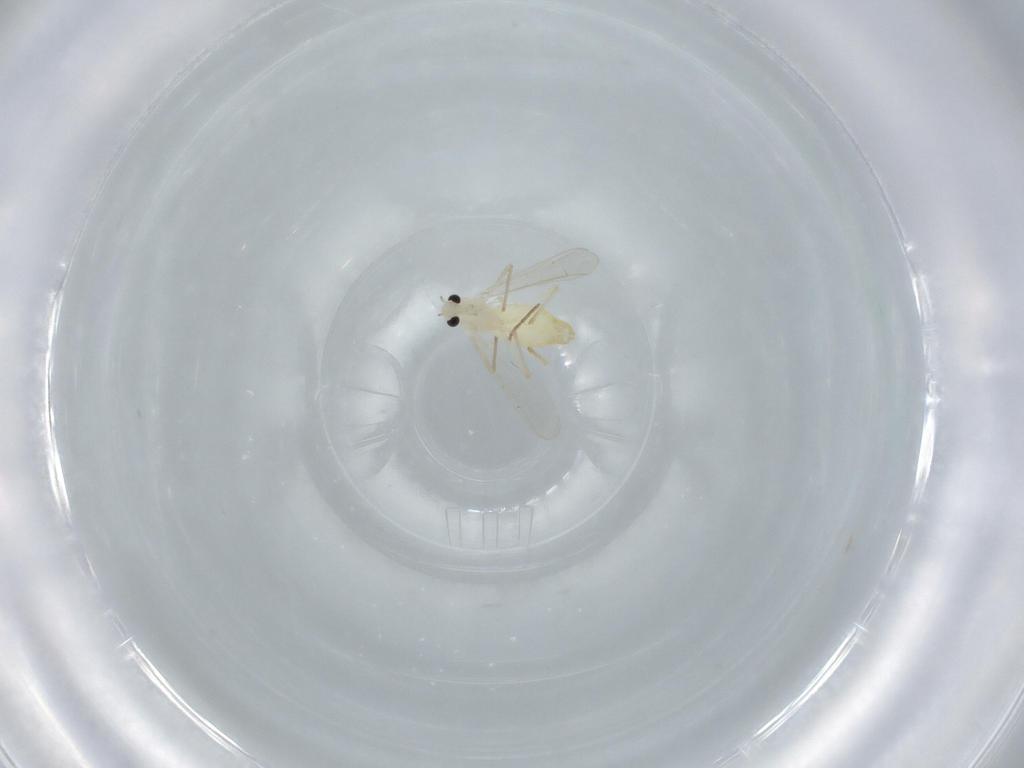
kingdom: Animalia
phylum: Arthropoda
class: Insecta
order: Diptera
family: Chironomidae
